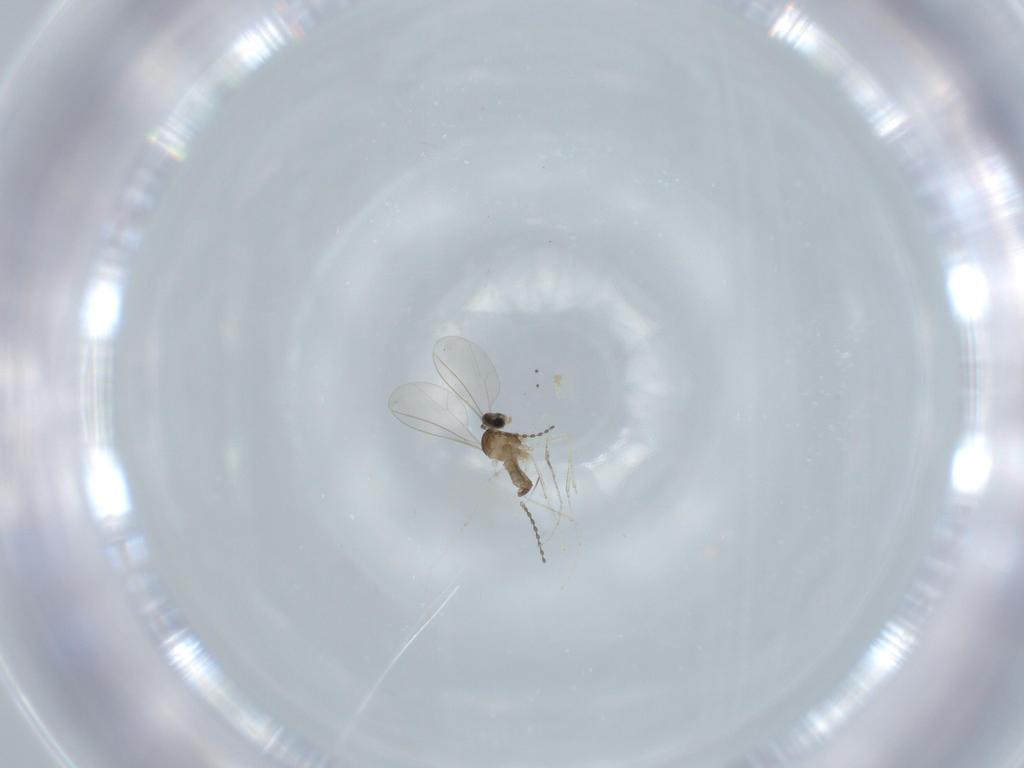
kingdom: Animalia
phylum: Arthropoda
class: Insecta
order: Diptera
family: Cecidomyiidae
